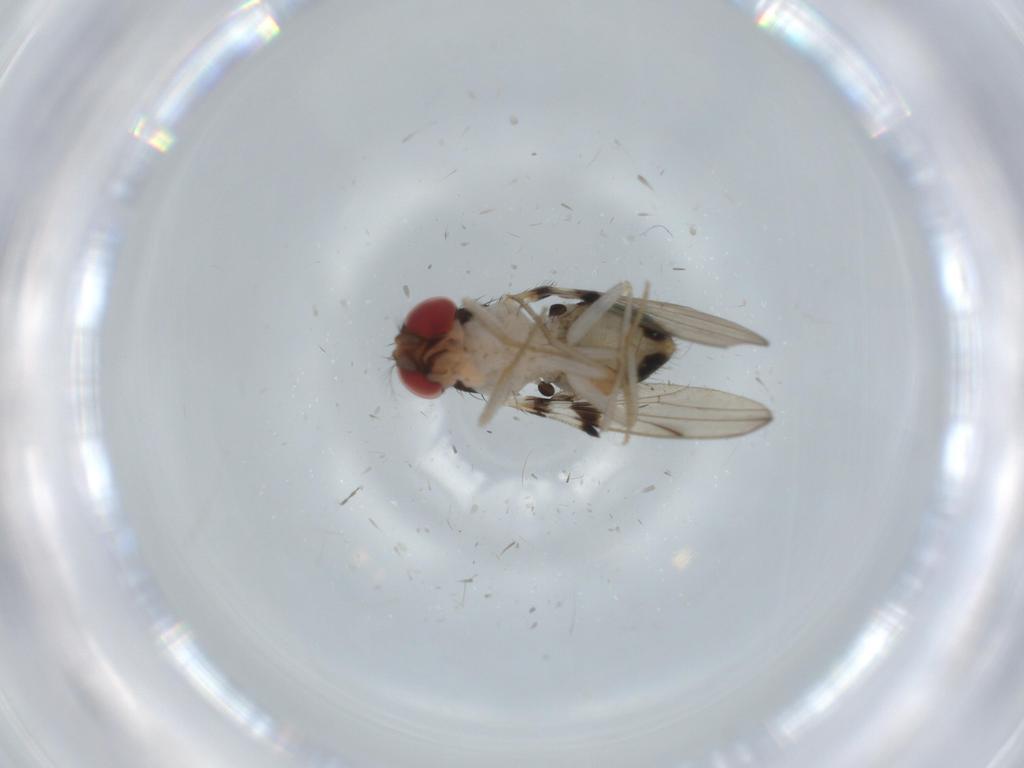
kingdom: Animalia
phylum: Arthropoda
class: Insecta
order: Diptera
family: Drosophilidae
